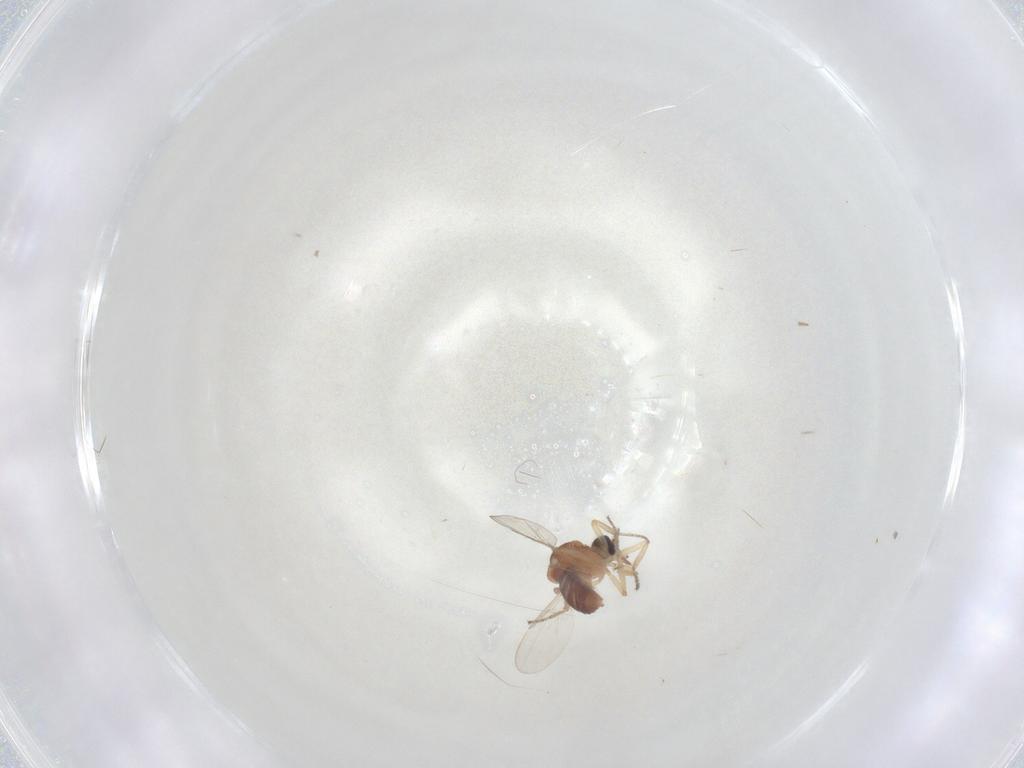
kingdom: Animalia
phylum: Arthropoda
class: Insecta
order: Diptera
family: Ceratopogonidae
